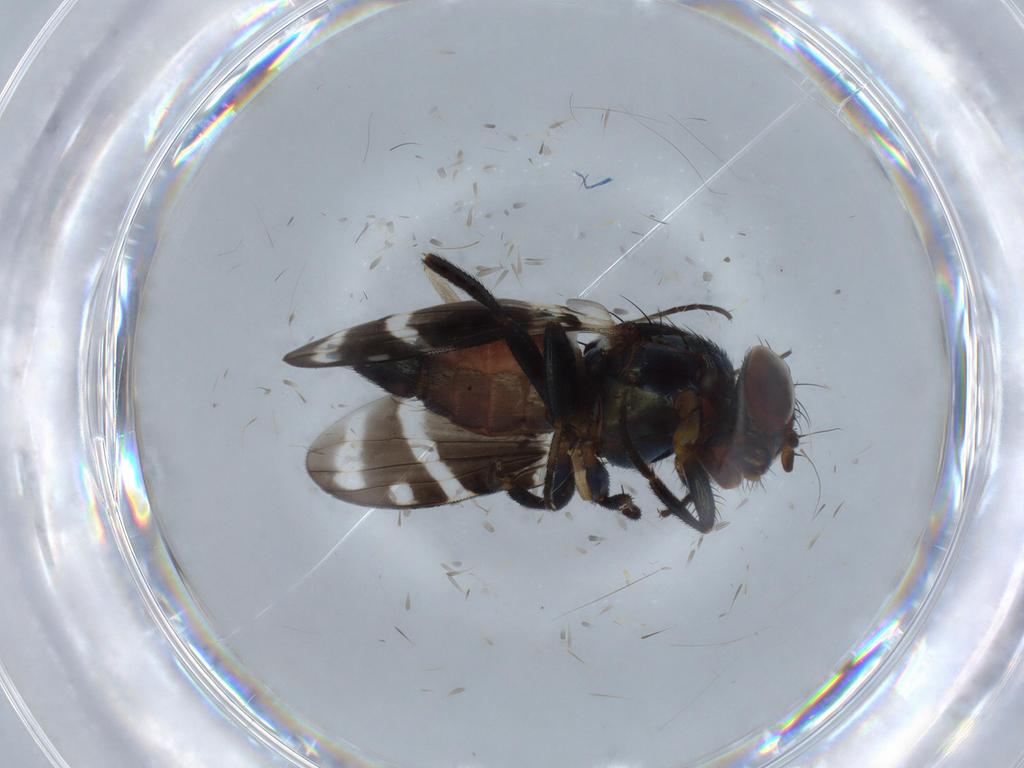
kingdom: Animalia
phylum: Arthropoda
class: Insecta
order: Diptera
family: Ulidiidae
